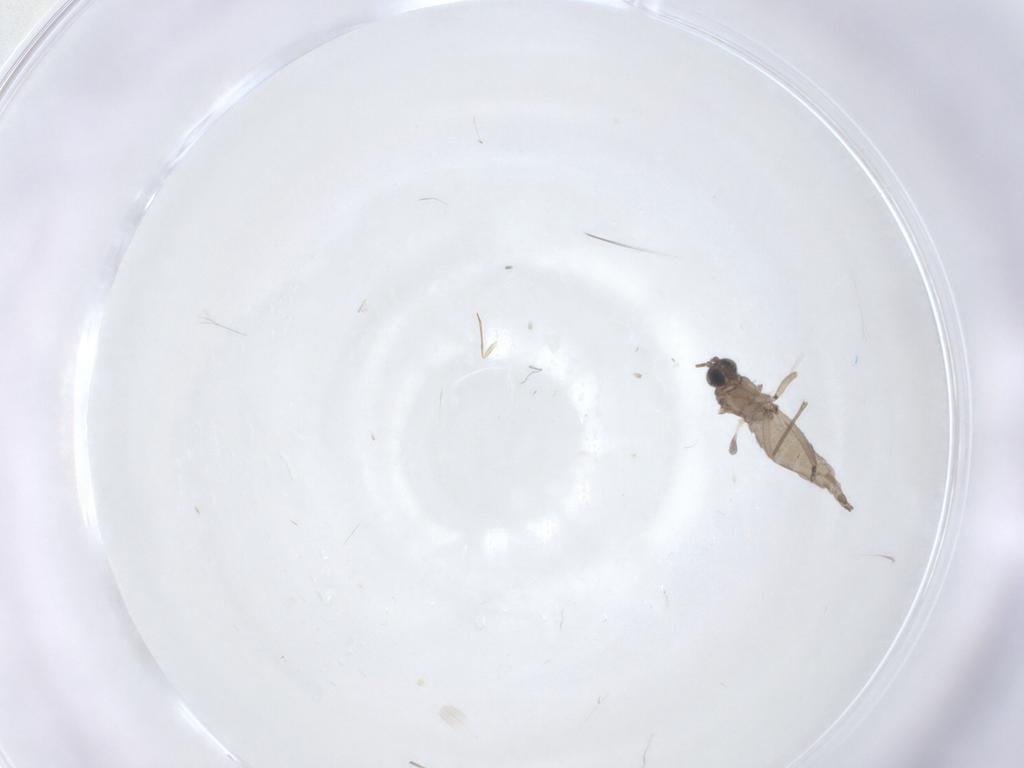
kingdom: Animalia
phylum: Arthropoda
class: Insecta
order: Diptera
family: Sciaridae
